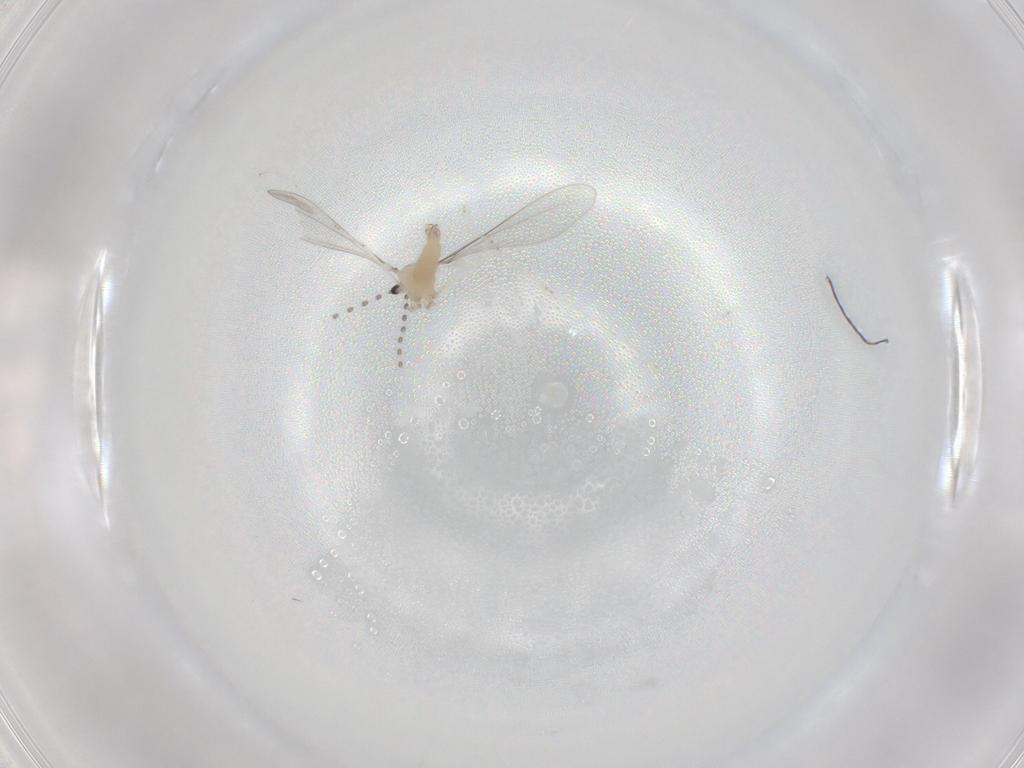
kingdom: Animalia
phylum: Arthropoda
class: Insecta
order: Diptera
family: Cecidomyiidae
